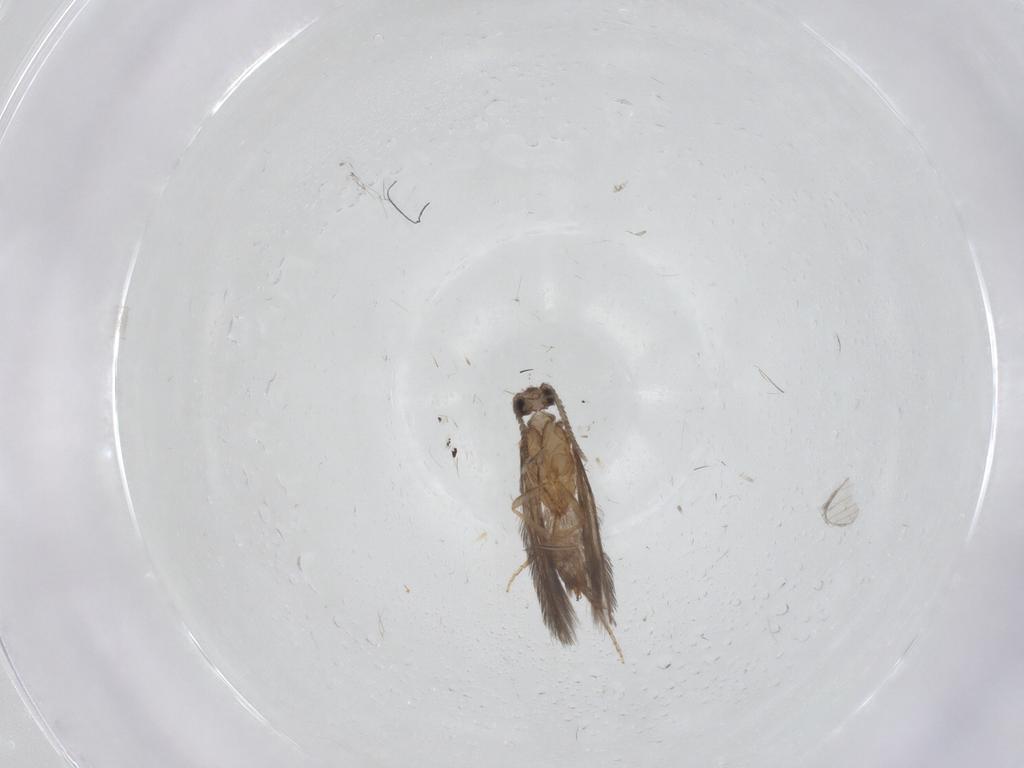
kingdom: Animalia
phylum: Arthropoda
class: Insecta
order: Trichoptera
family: Hydroptilidae
